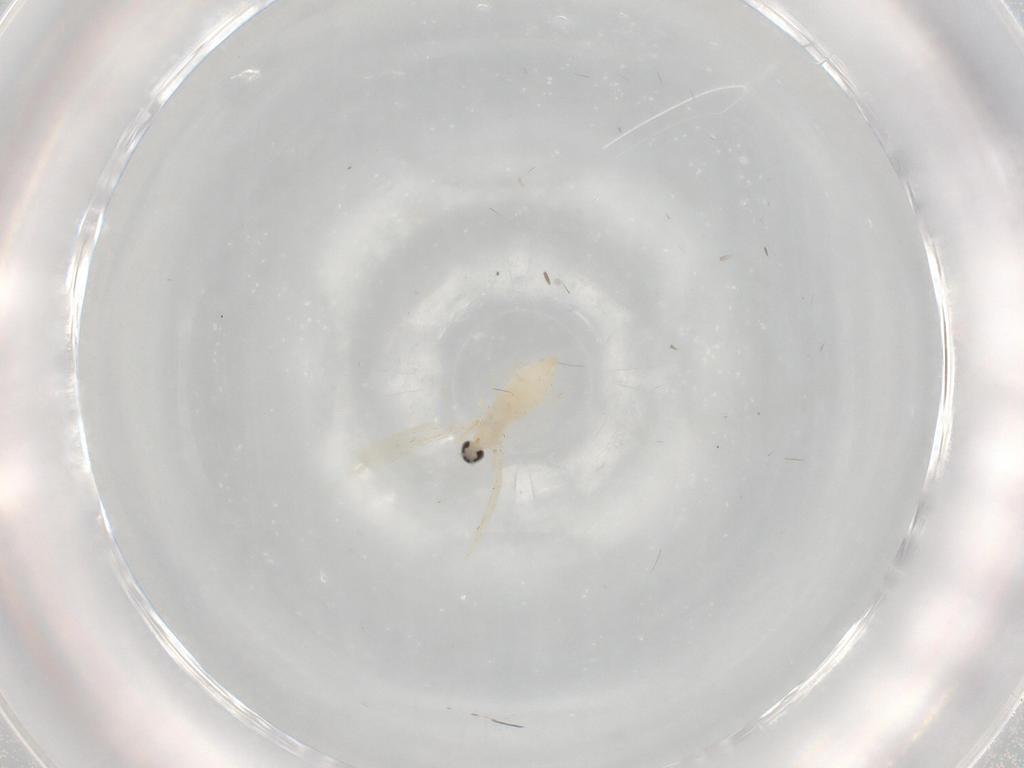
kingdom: Animalia
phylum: Arthropoda
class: Insecta
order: Diptera
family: Cecidomyiidae
